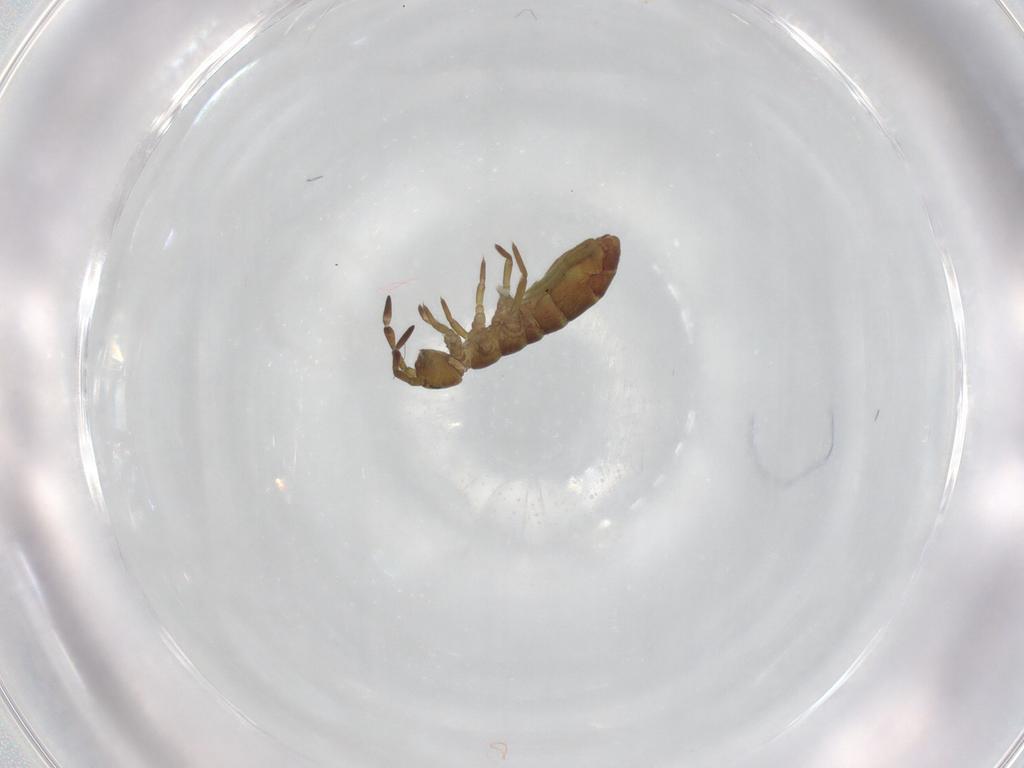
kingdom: Animalia
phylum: Arthropoda
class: Collembola
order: Entomobryomorpha
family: Isotomidae
